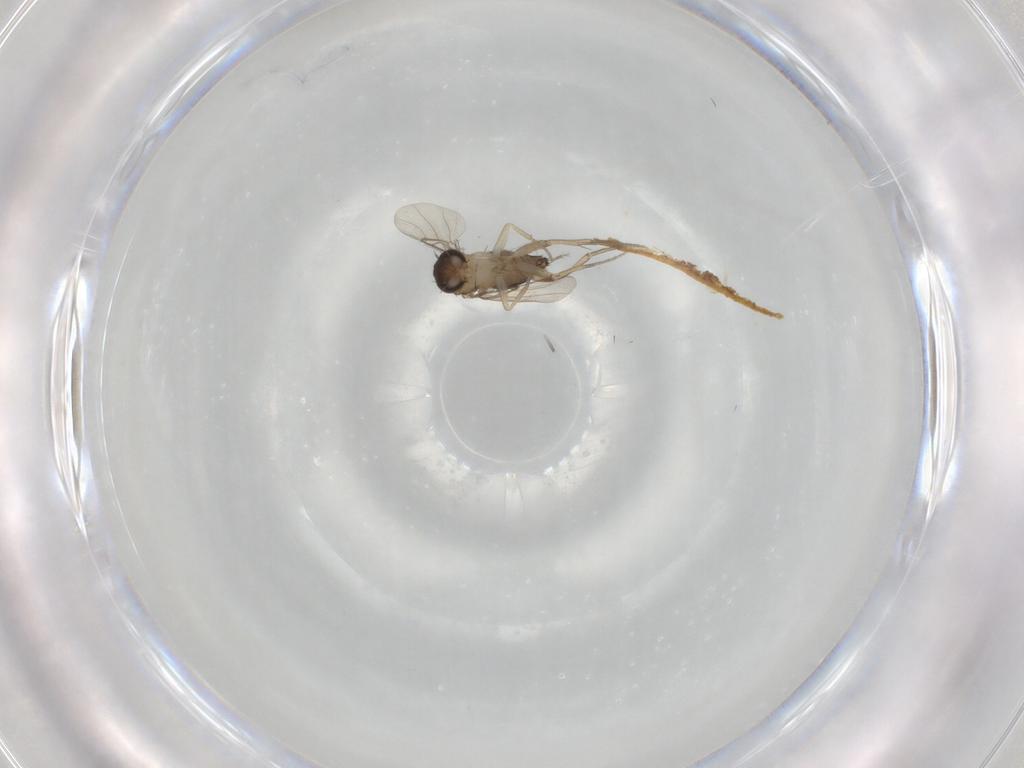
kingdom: Animalia
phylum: Arthropoda
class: Insecta
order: Diptera
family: Phoridae
